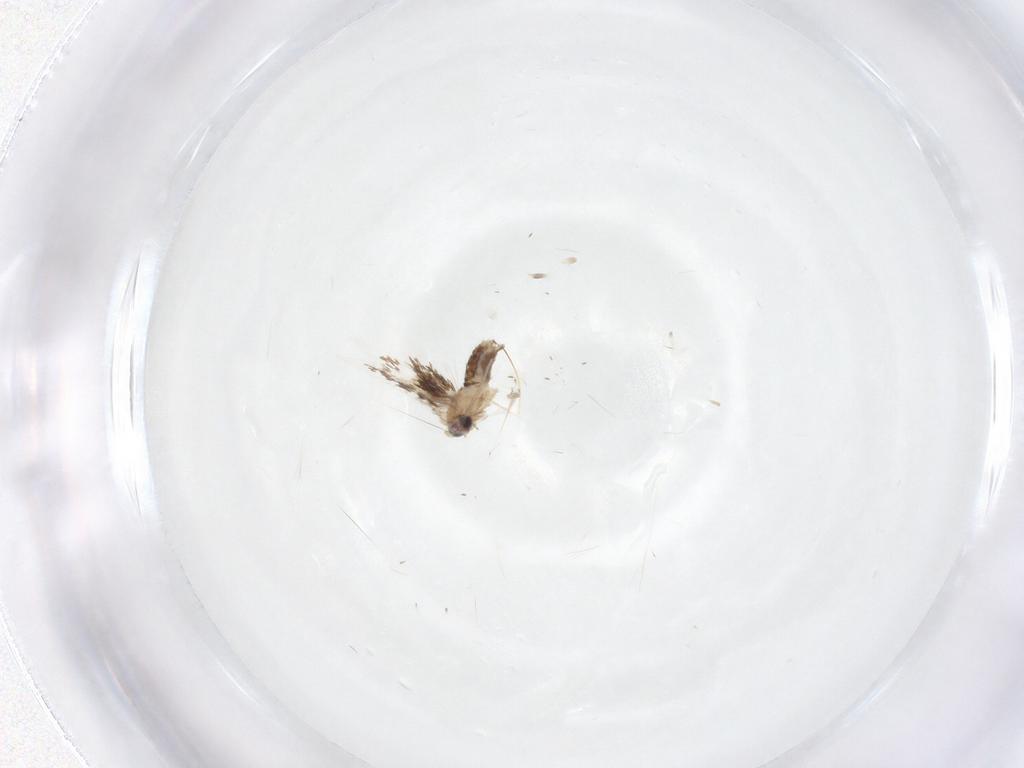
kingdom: Animalia
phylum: Arthropoda
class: Insecta
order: Lepidoptera
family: Nepticulidae
